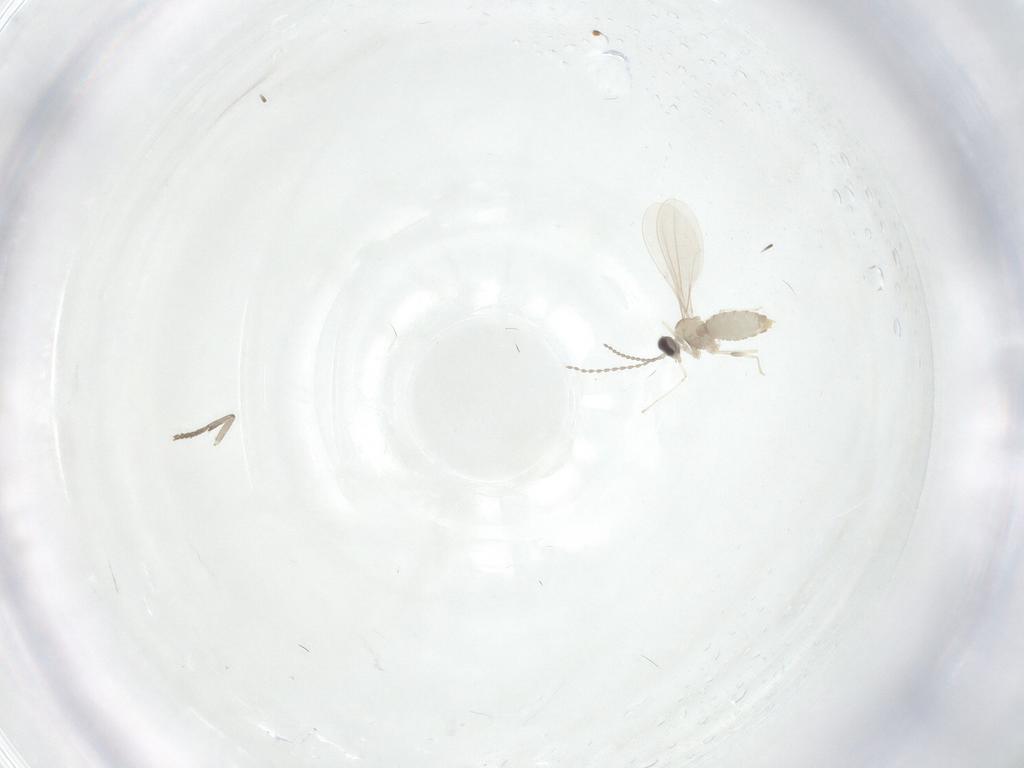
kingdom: Animalia
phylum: Arthropoda
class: Insecta
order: Diptera
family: Cecidomyiidae
